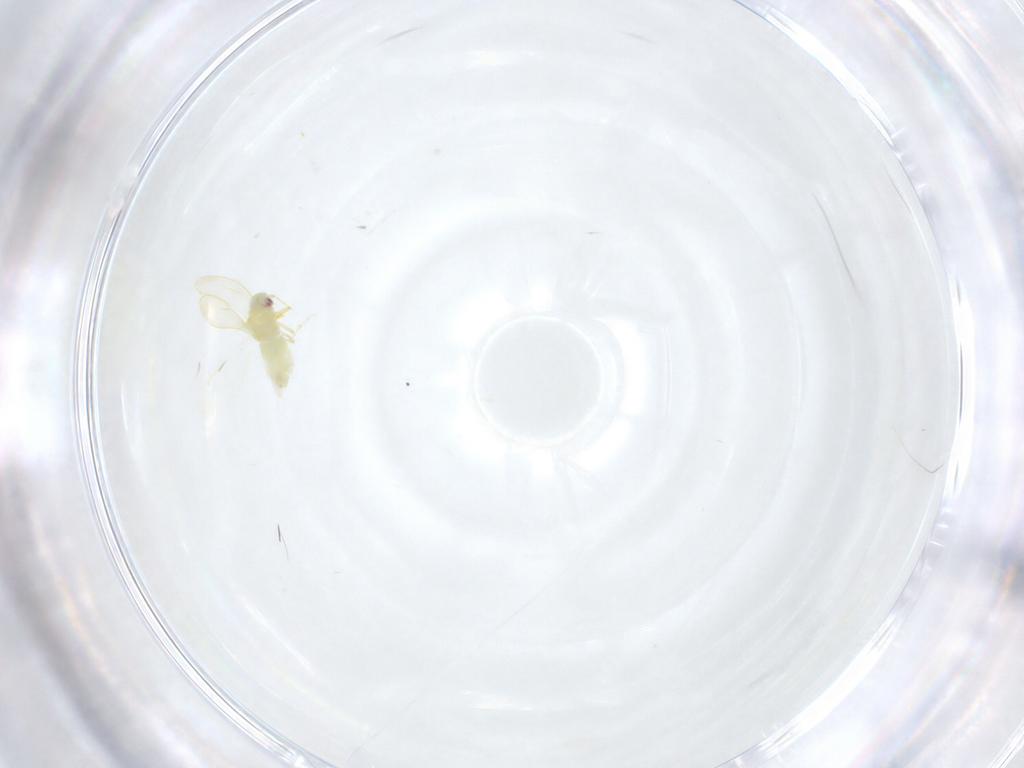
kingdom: Animalia
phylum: Arthropoda
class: Insecta
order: Hemiptera
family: Aleyrodidae
